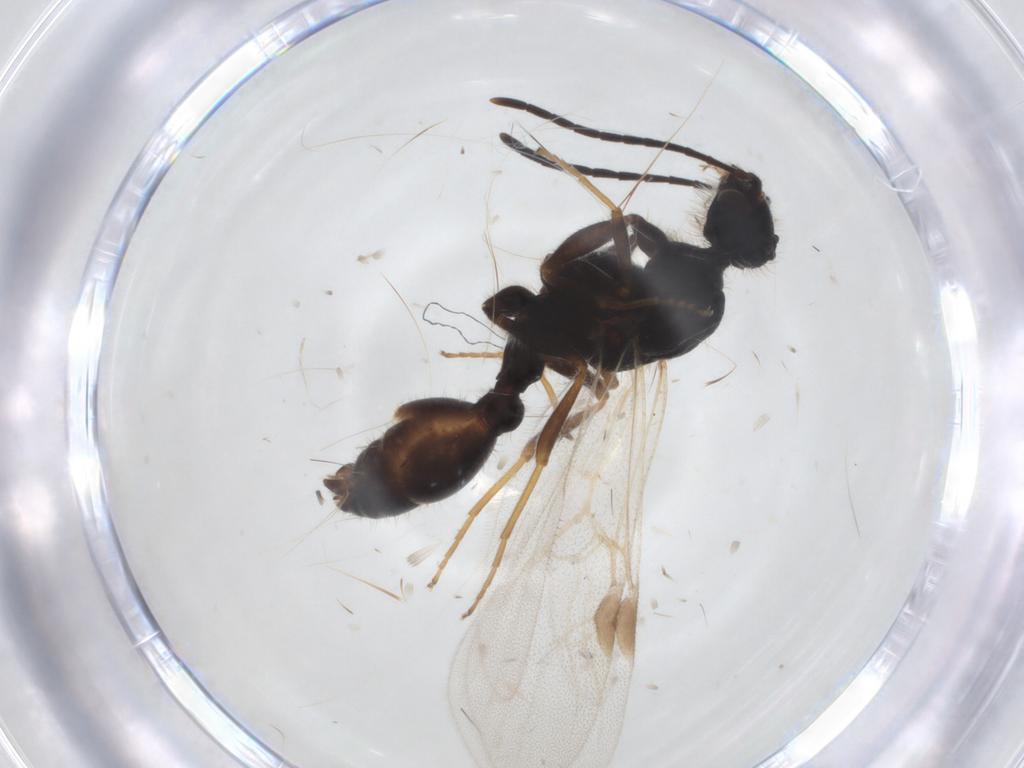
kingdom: Animalia
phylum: Arthropoda
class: Insecta
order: Hymenoptera
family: Formicidae
